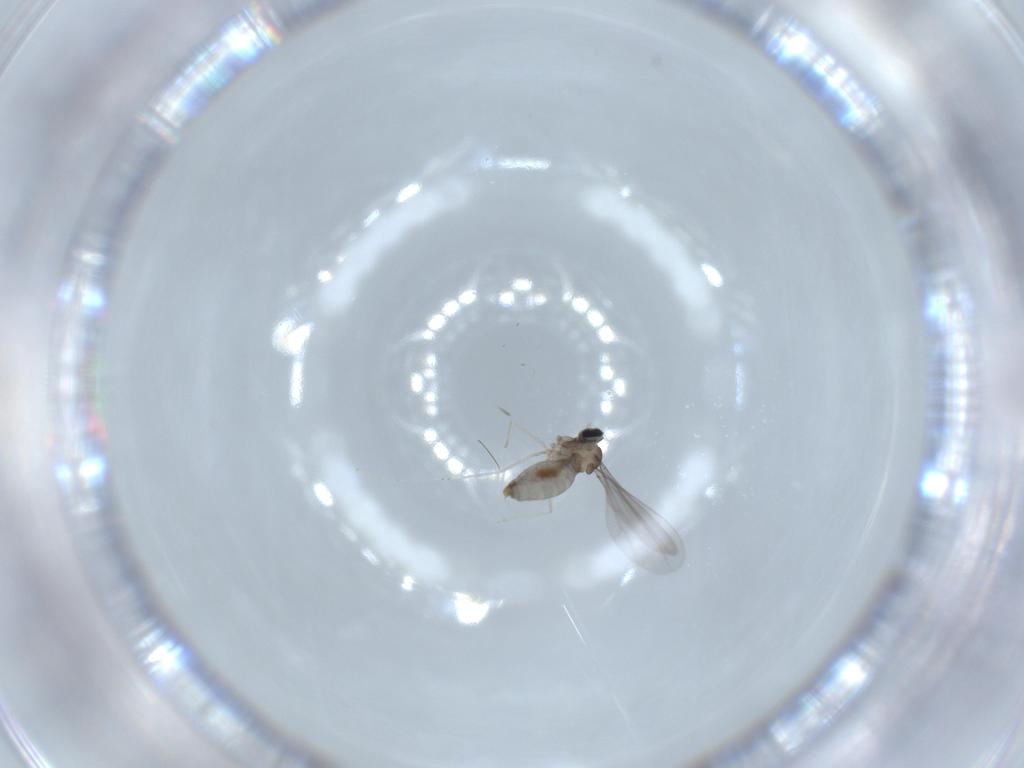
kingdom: Animalia
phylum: Arthropoda
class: Insecta
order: Diptera
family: Cecidomyiidae
